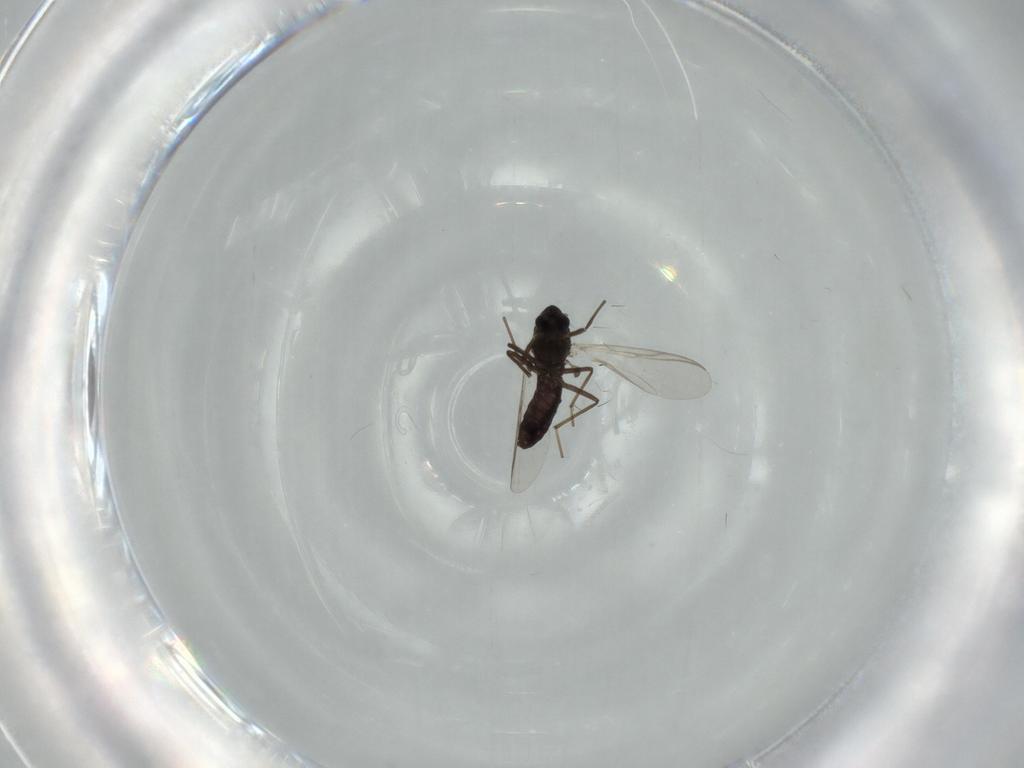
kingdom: Animalia
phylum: Arthropoda
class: Insecta
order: Diptera
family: Chironomidae
